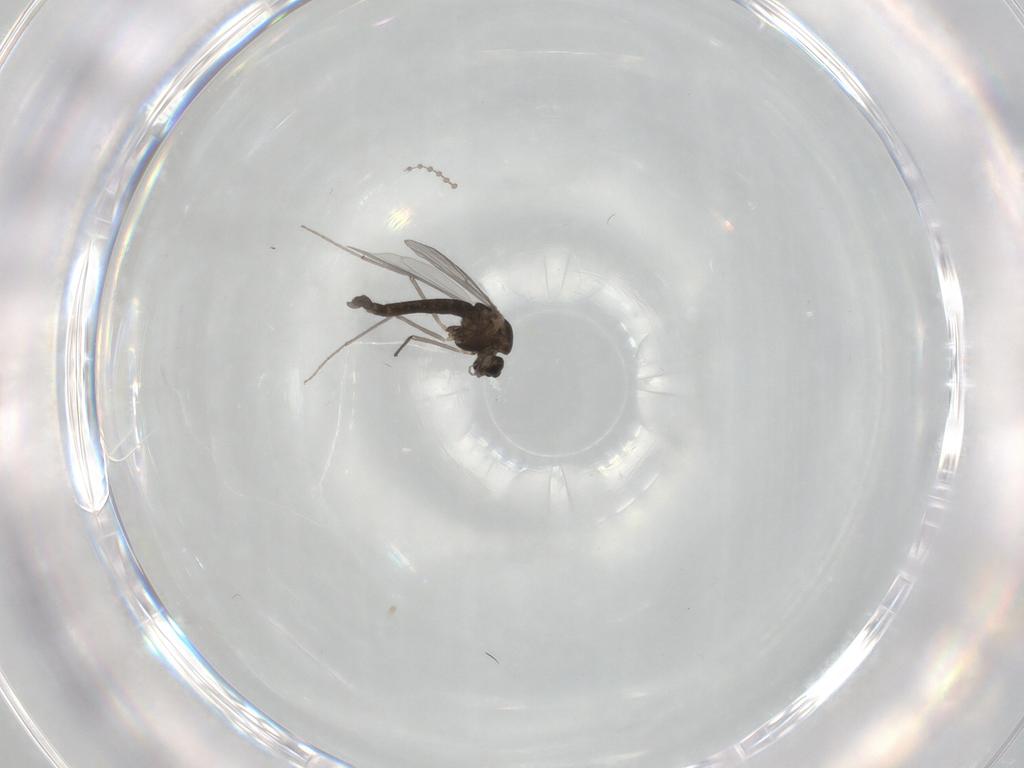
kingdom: Animalia
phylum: Arthropoda
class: Insecta
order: Diptera
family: Chironomidae
